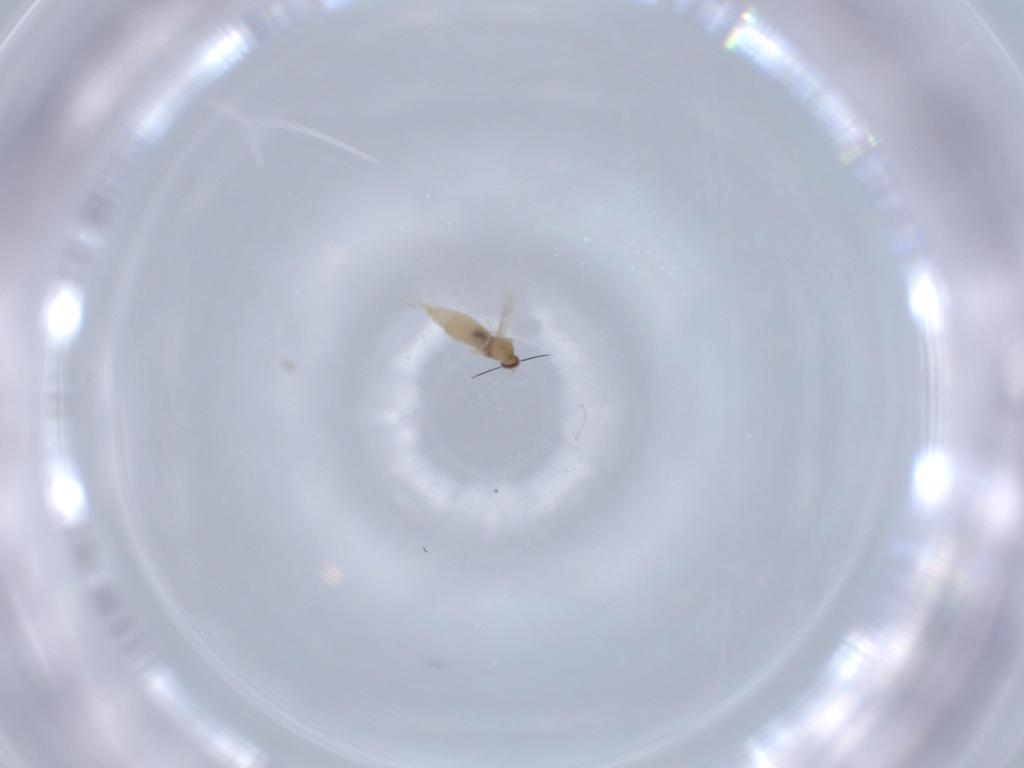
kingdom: Animalia
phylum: Arthropoda
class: Insecta
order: Diptera
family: Cecidomyiidae
